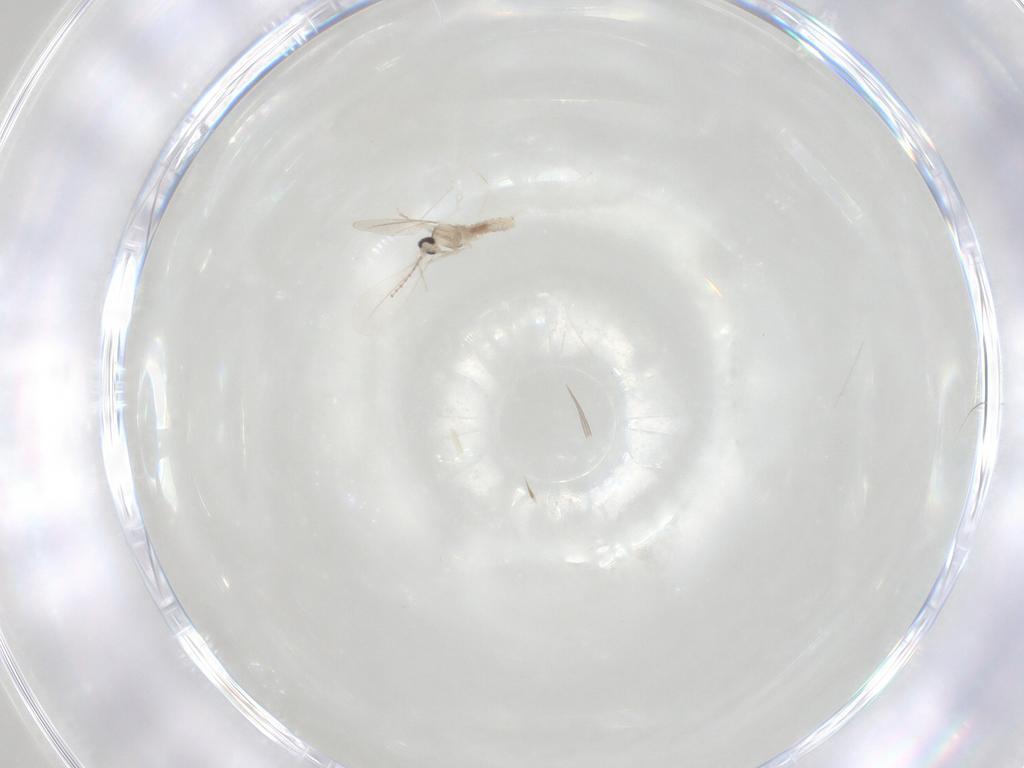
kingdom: Animalia
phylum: Arthropoda
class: Insecta
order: Diptera
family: Cecidomyiidae
